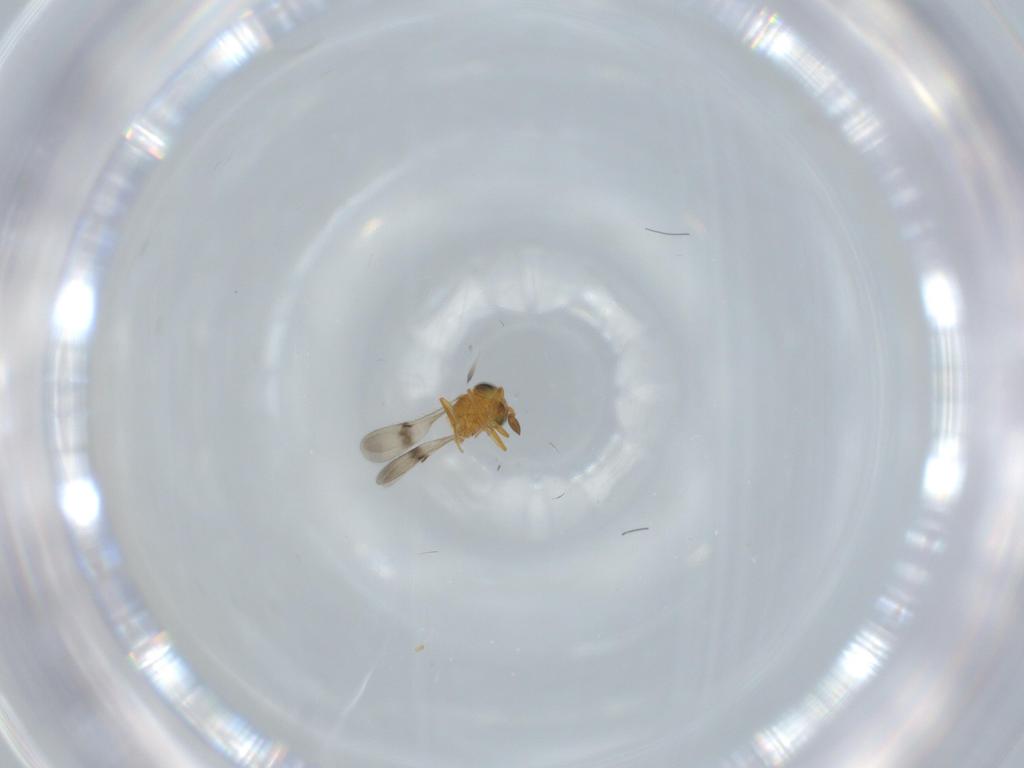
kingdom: Animalia
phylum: Arthropoda
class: Insecta
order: Hymenoptera
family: Scelionidae
